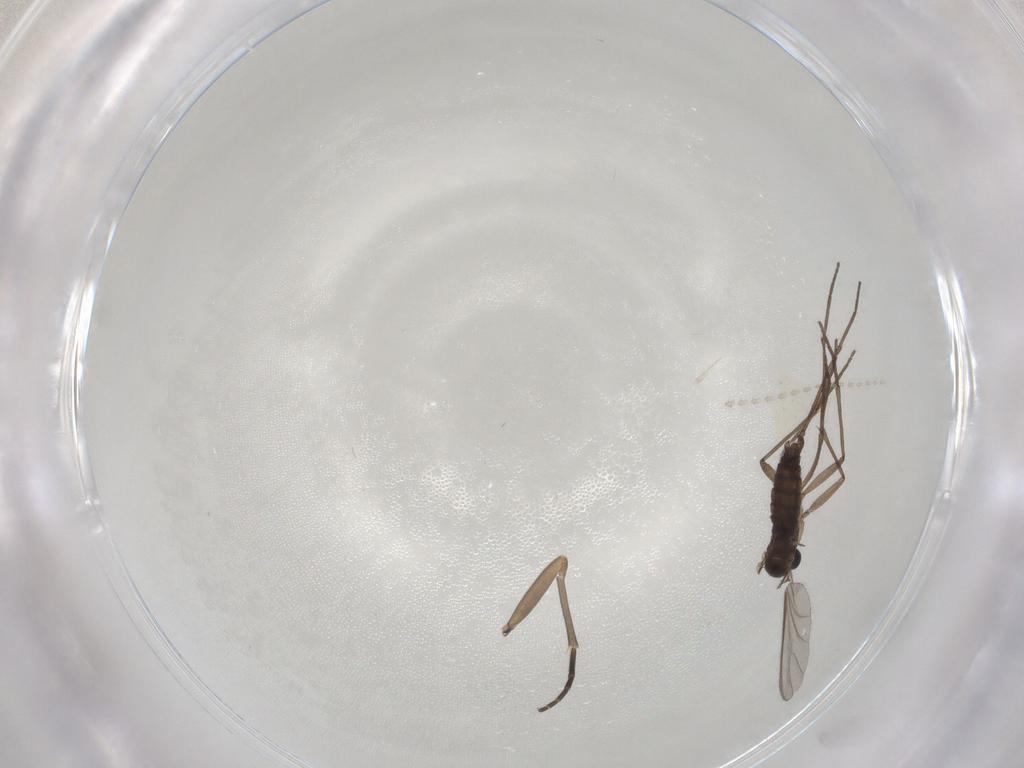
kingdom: Animalia
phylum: Arthropoda
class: Insecta
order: Diptera
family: Sciaridae
